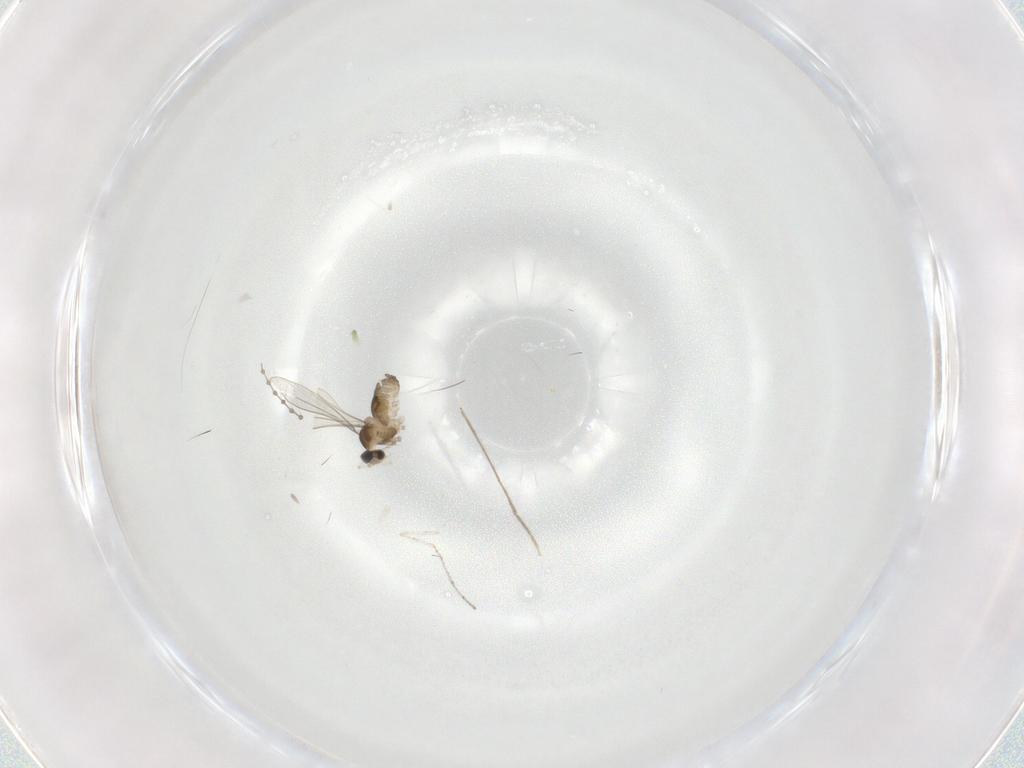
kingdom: Animalia
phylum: Arthropoda
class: Insecta
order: Diptera
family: Cecidomyiidae
